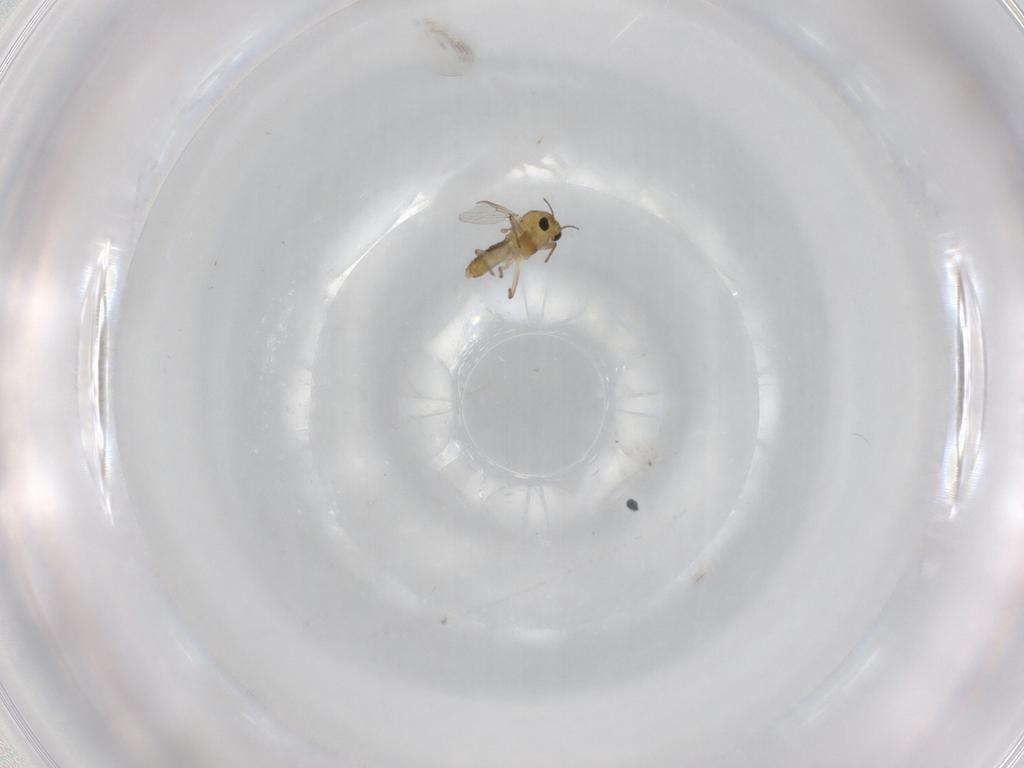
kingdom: Animalia
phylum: Arthropoda
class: Insecta
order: Diptera
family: Chironomidae
